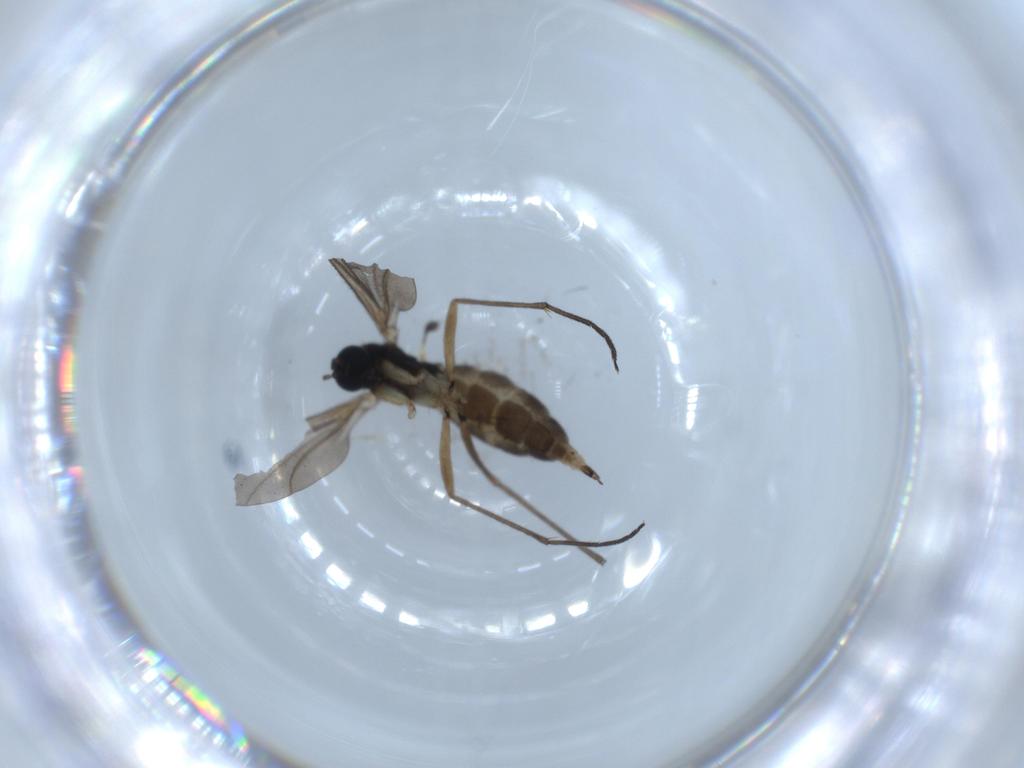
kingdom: Animalia
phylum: Arthropoda
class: Insecta
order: Diptera
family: Sciaridae
